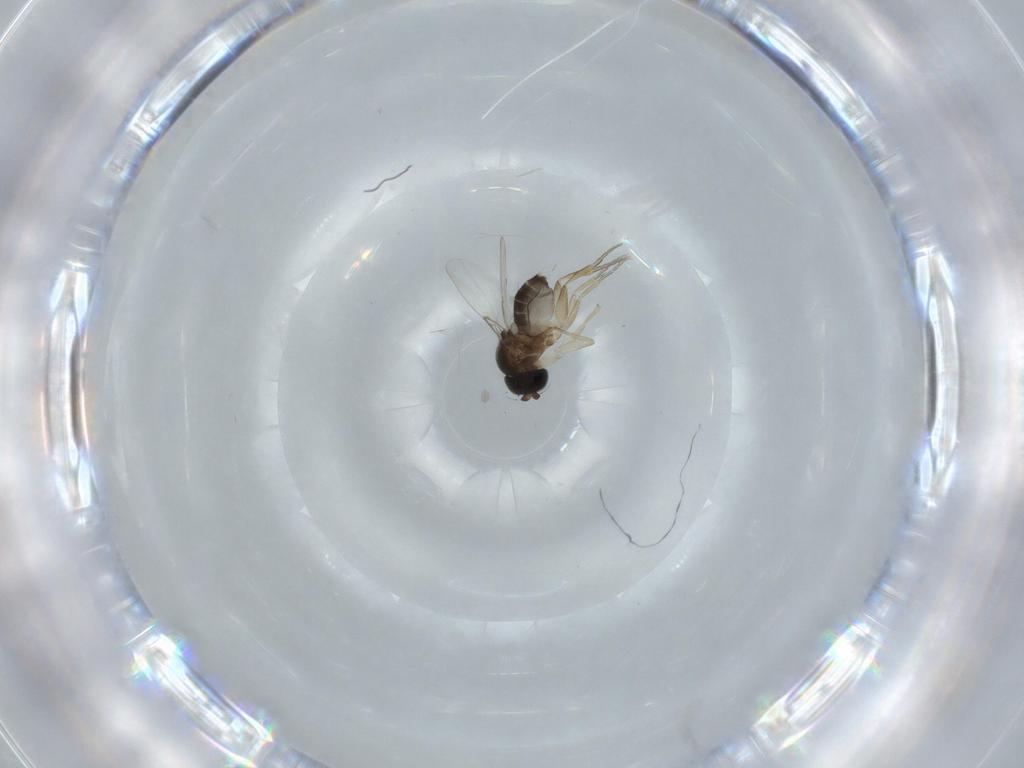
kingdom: Animalia
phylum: Arthropoda
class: Insecta
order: Diptera
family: Phoridae
